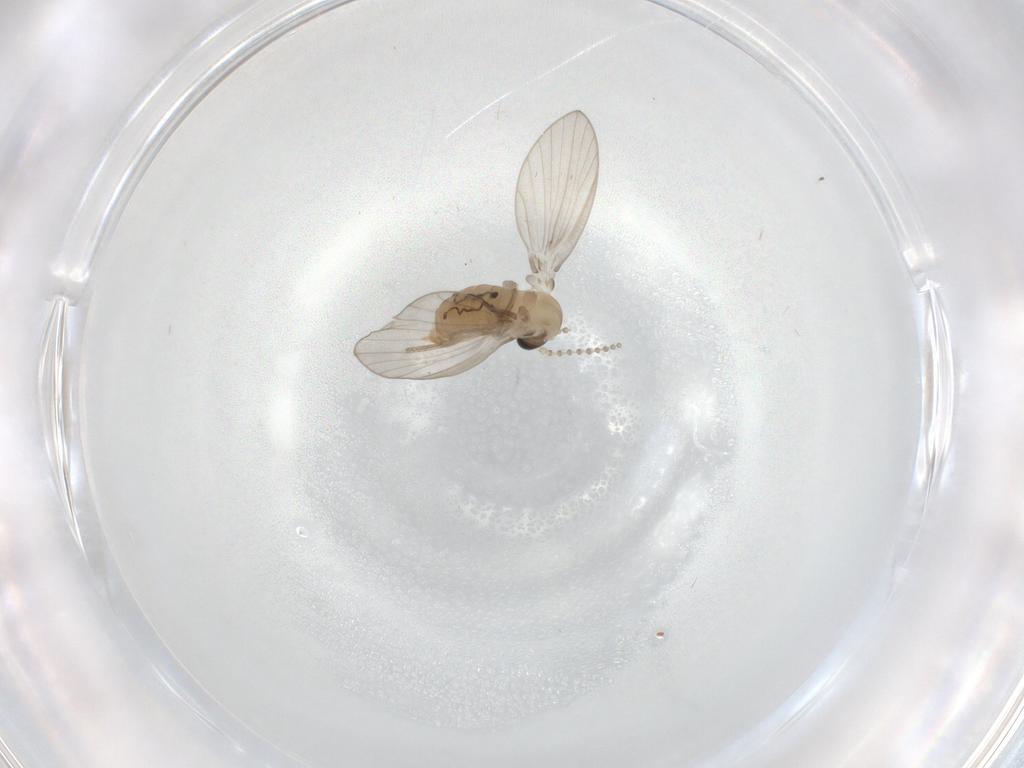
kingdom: Animalia
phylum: Arthropoda
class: Insecta
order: Diptera
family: Psychodidae
